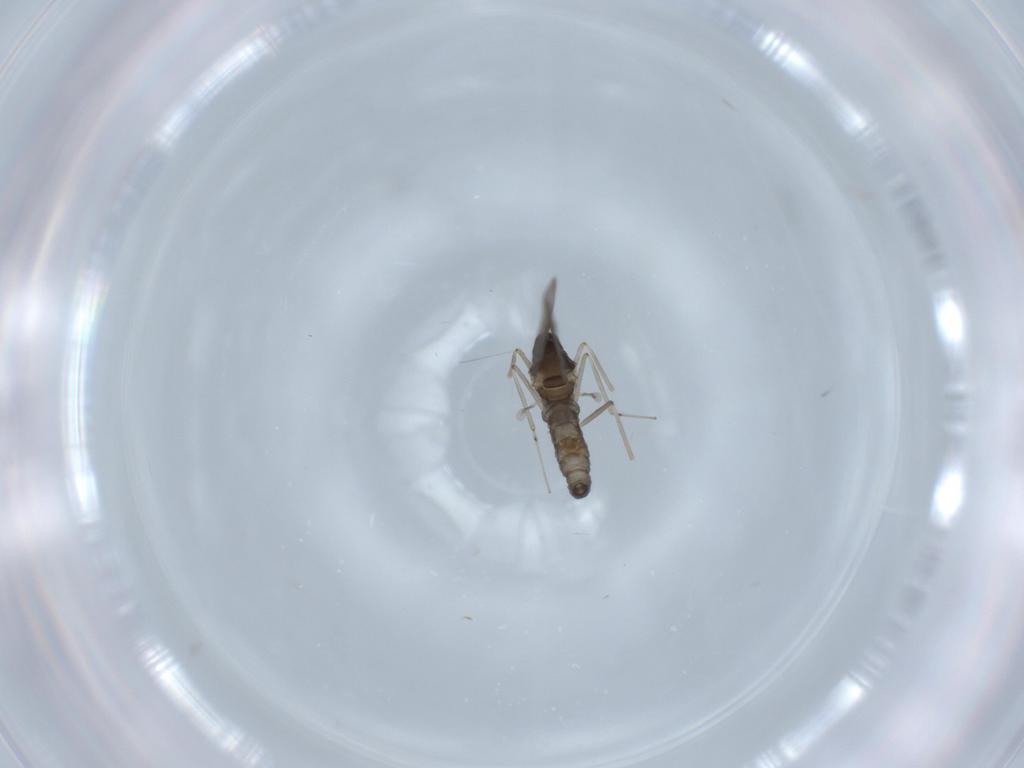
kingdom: Animalia
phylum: Arthropoda
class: Insecta
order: Diptera
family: Cecidomyiidae
